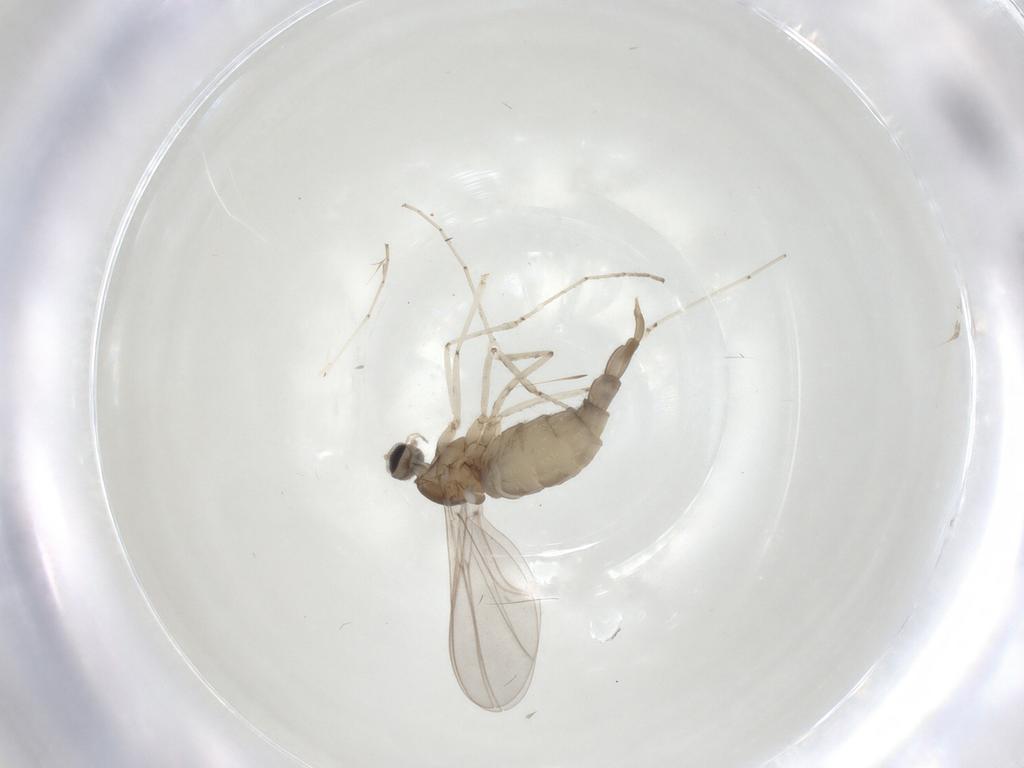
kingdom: Animalia
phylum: Arthropoda
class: Insecta
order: Diptera
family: Cecidomyiidae
